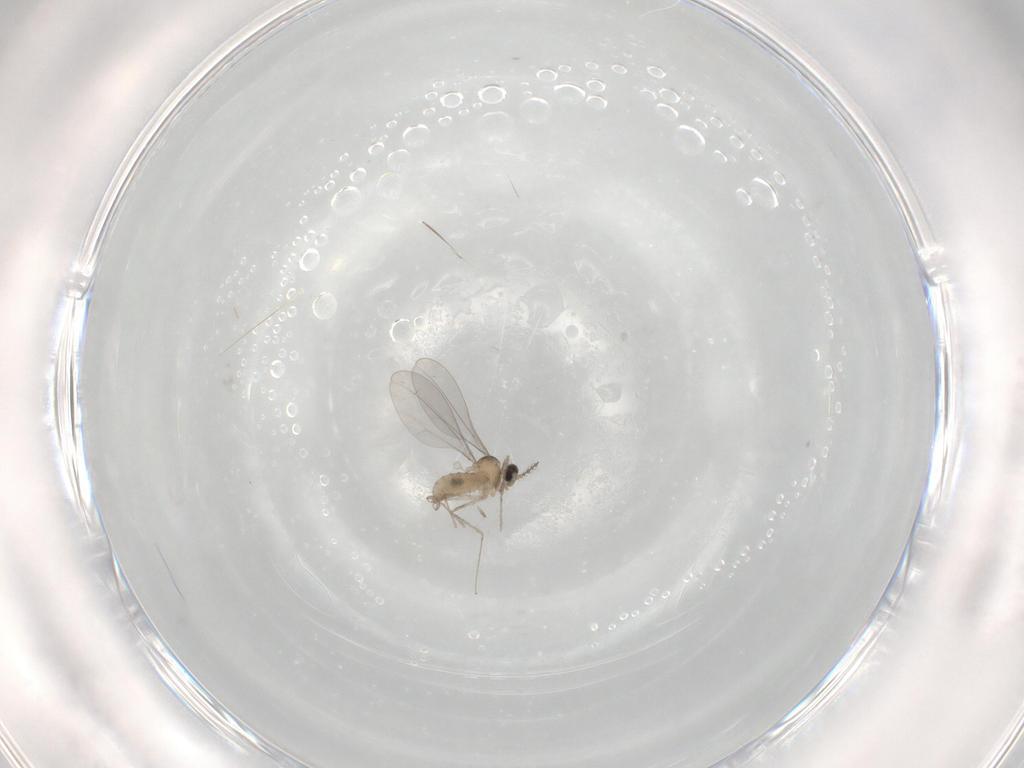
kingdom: Animalia
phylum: Arthropoda
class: Insecta
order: Diptera
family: Cecidomyiidae
